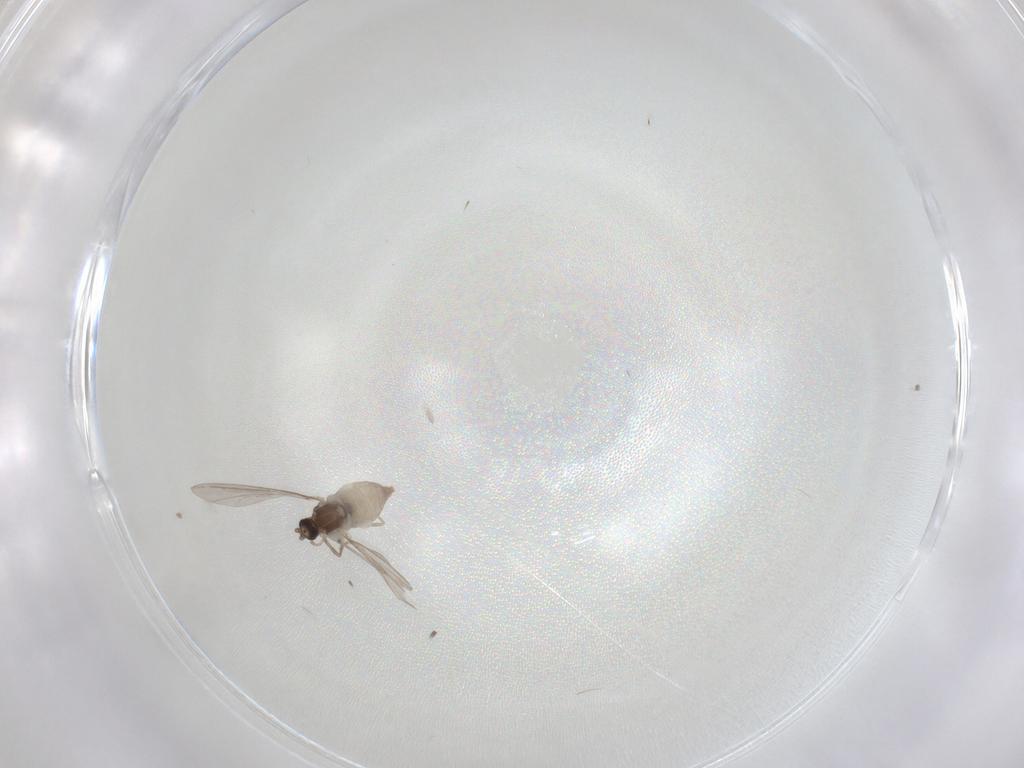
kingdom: Animalia
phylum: Arthropoda
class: Insecta
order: Diptera
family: Cecidomyiidae
